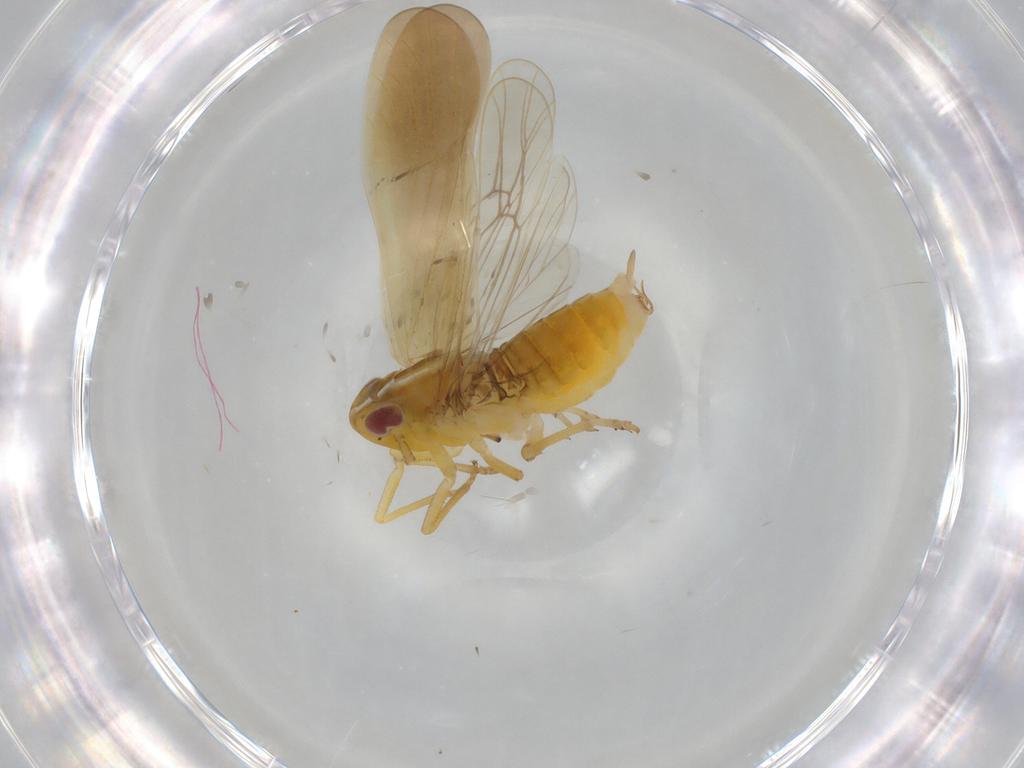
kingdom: Animalia
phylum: Arthropoda
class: Insecta
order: Hemiptera
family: Delphacidae
